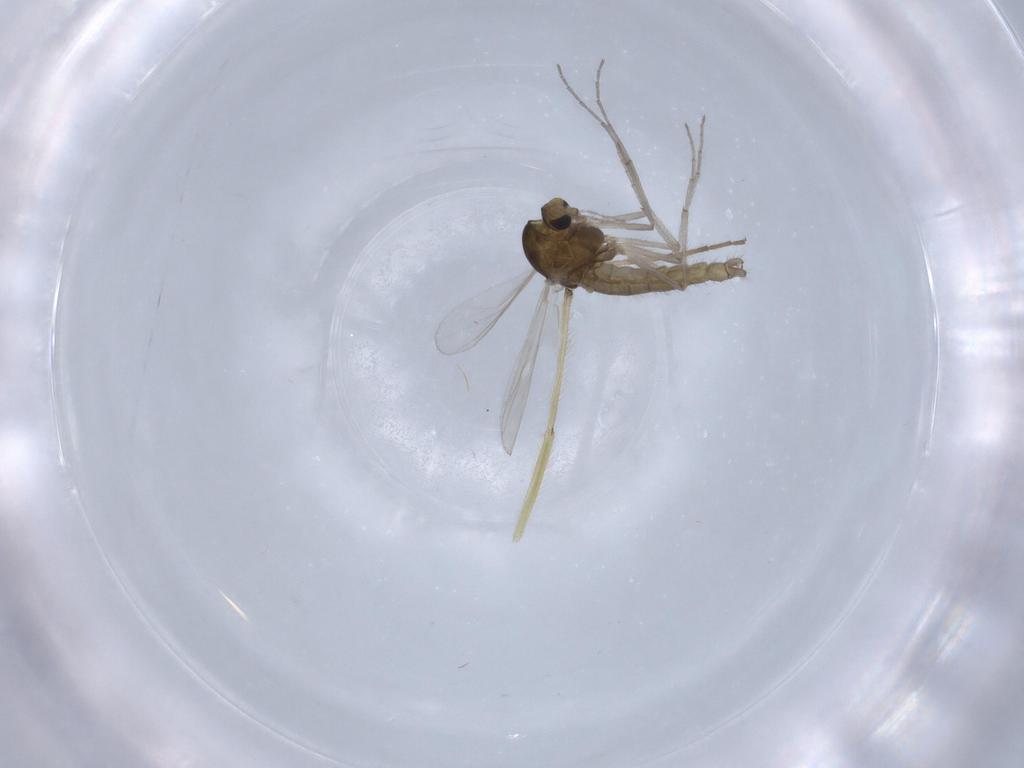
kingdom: Animalia
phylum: Arthropoda
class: Insecta
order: Diptera
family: Chironomidae
